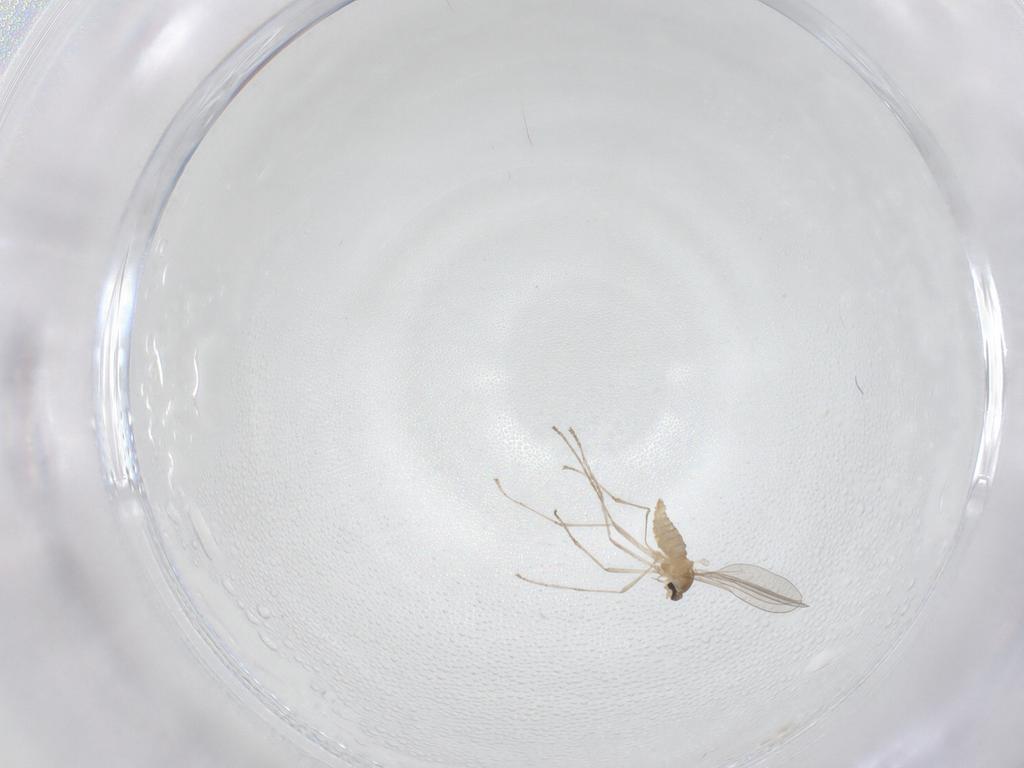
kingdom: Animalia
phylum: Arthropoda
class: Insecta
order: Diptera
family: Cecidomyiidae
